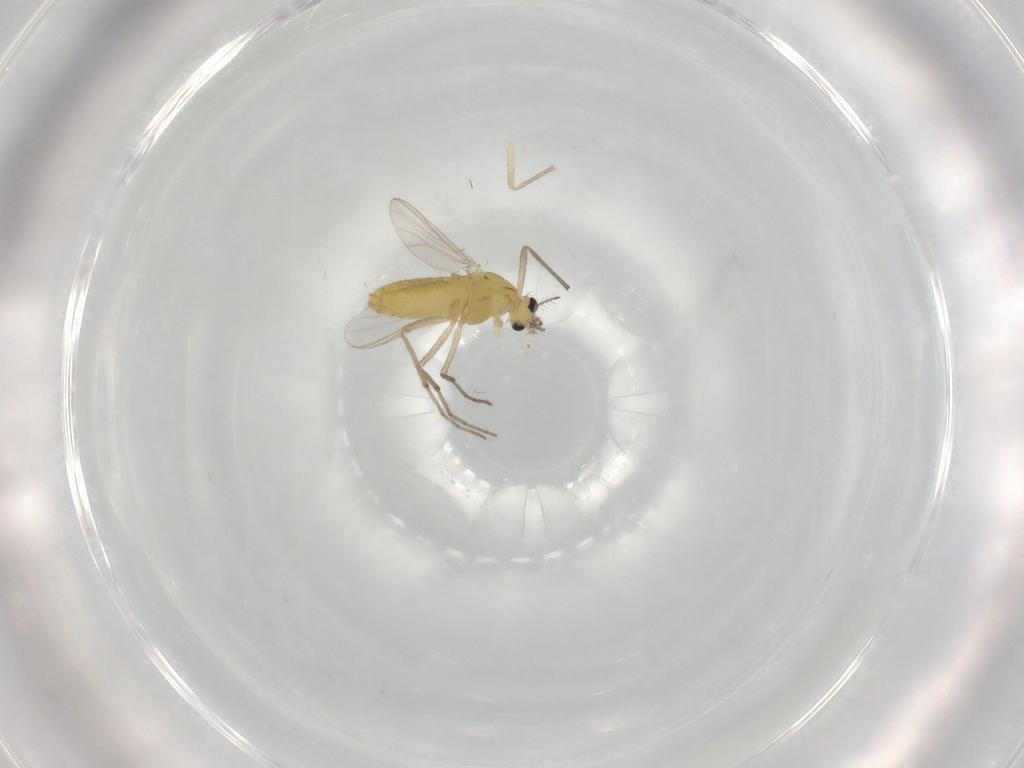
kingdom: Animalia
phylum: Arthropoda
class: Insecta
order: Diptera
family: Chironomidae
